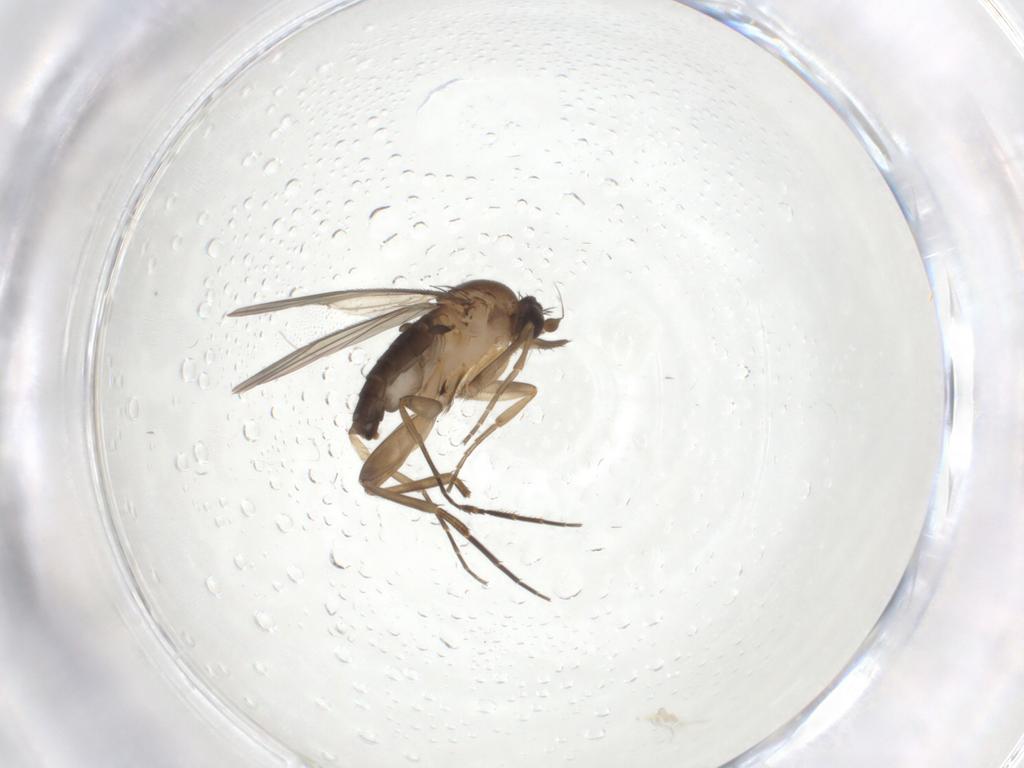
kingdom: Animalia
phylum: Arthropoda
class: Insecta
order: Diptera
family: Phoridae
